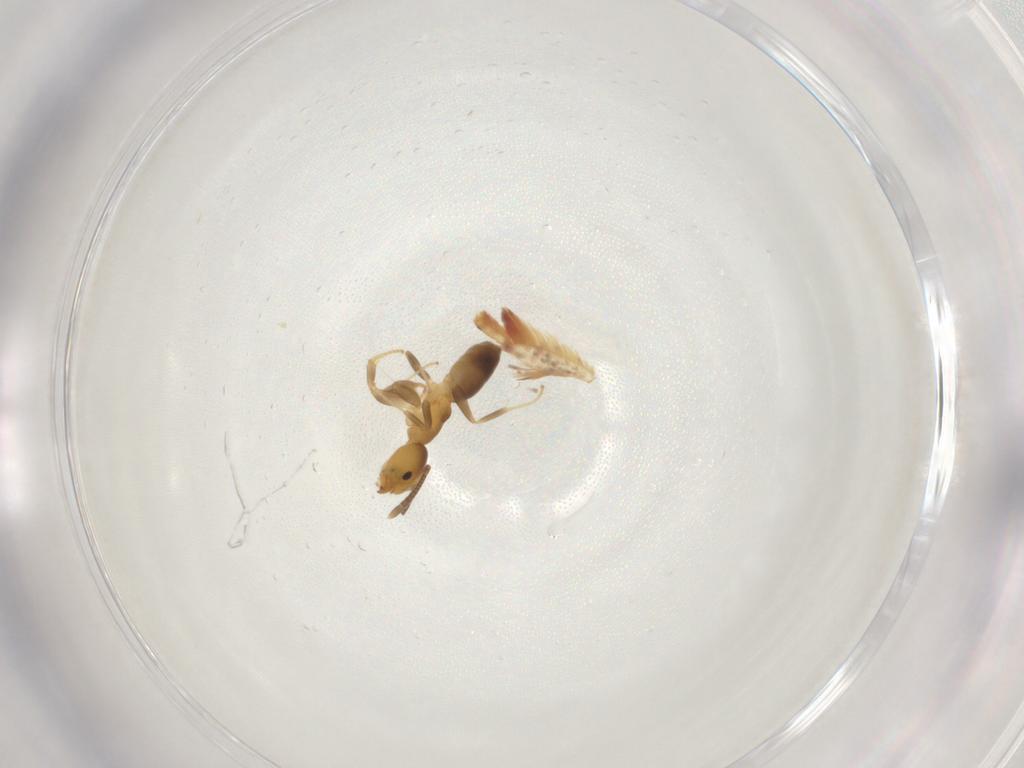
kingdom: Animalia
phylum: Arthropoda
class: Insecta
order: Hymenoptera
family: Formicidae
